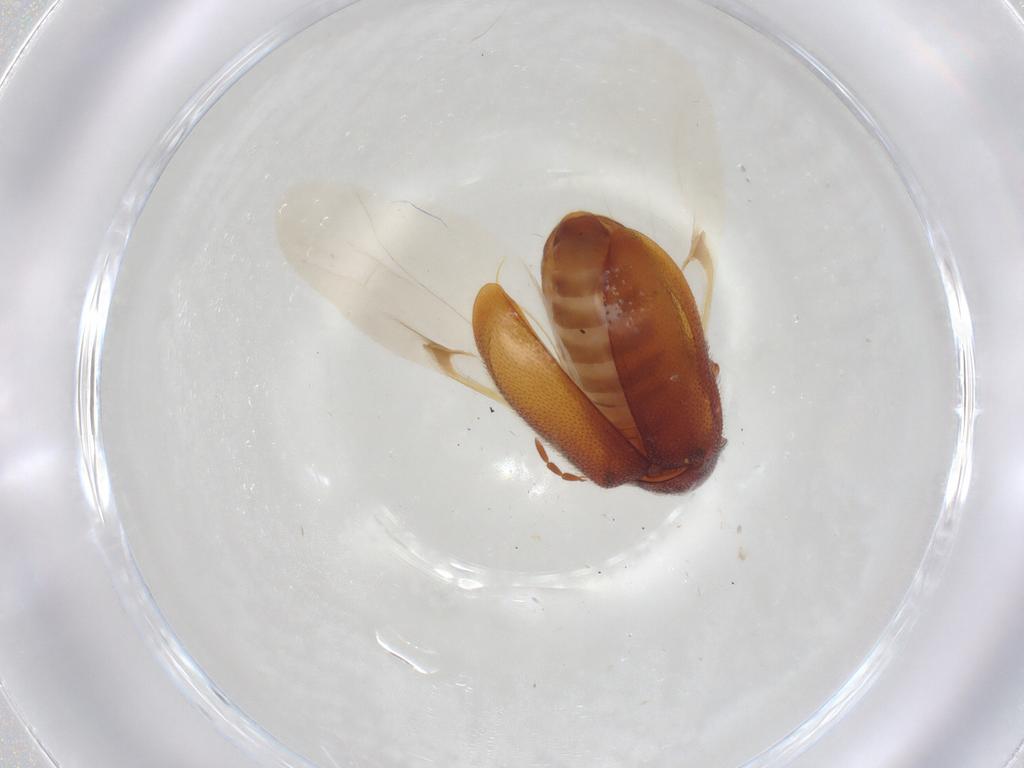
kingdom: Animalia
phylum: Arthropoda
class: Insecta
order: Coleoptera
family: Ptinidae
